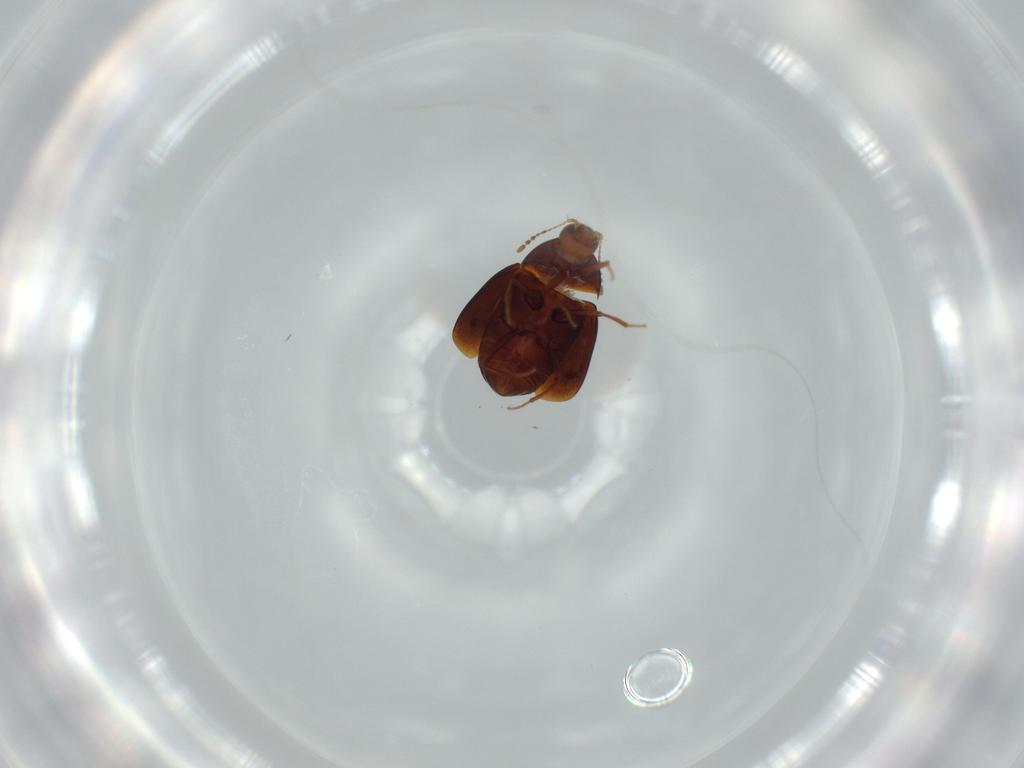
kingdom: Animalia
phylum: Arthropoda
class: Insecta
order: Coleoptera
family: Staphylinidae
